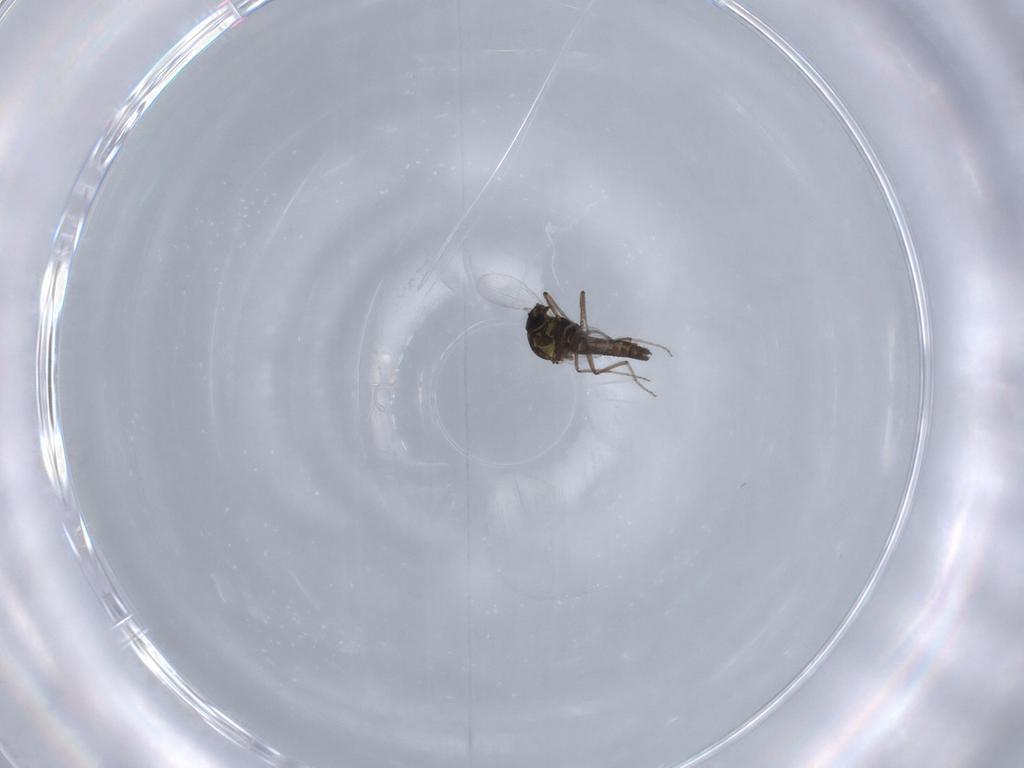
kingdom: Animalia
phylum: Arthropoda
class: Insecta
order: Diptera
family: Ceratopogonidae
